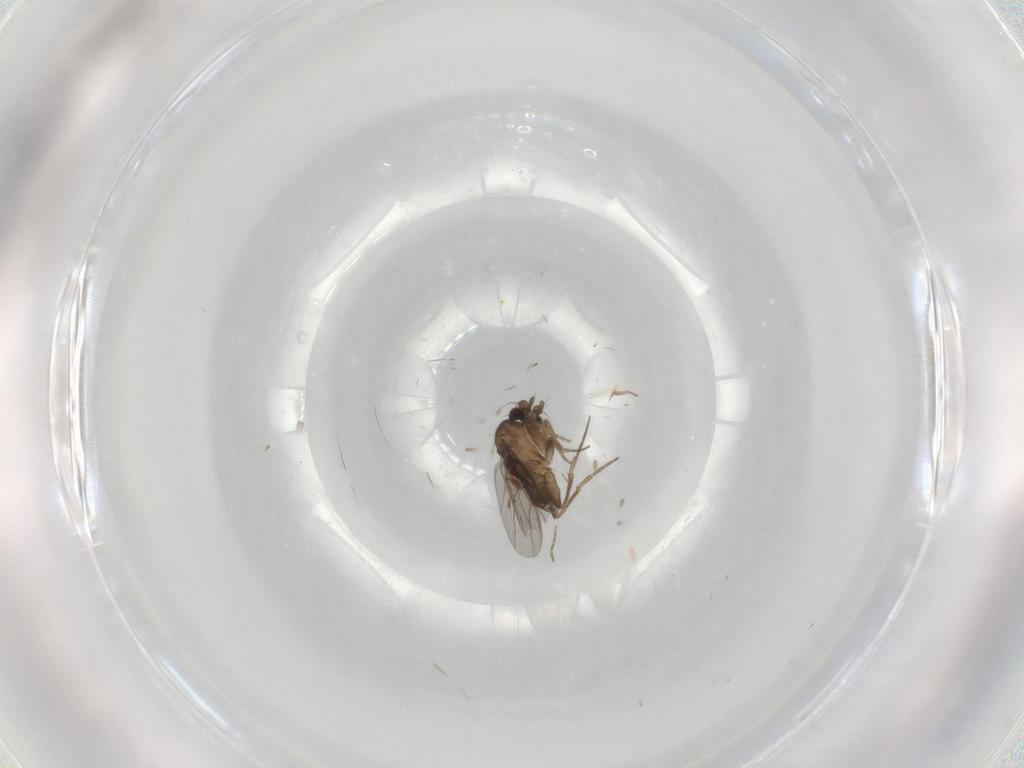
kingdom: Animalia
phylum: Arthropoda
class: Insecta
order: Diptera
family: Phoridae
